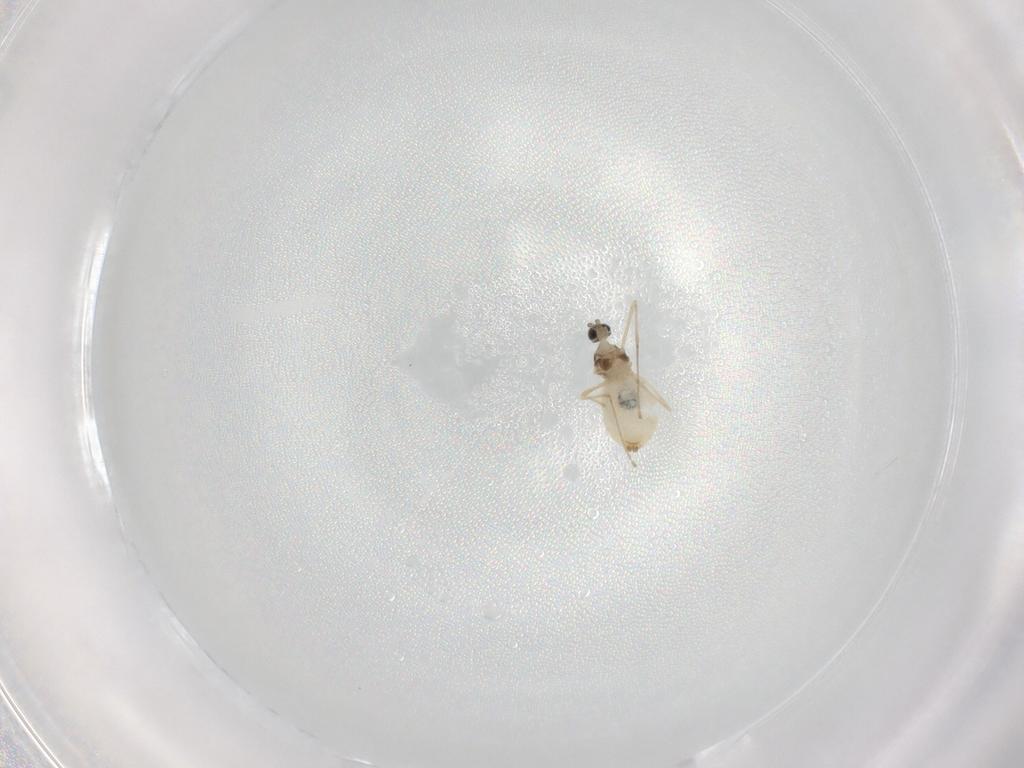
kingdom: Animalia
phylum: Arthropoda
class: Insecta
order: Diptera
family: Cecidomyiidae
